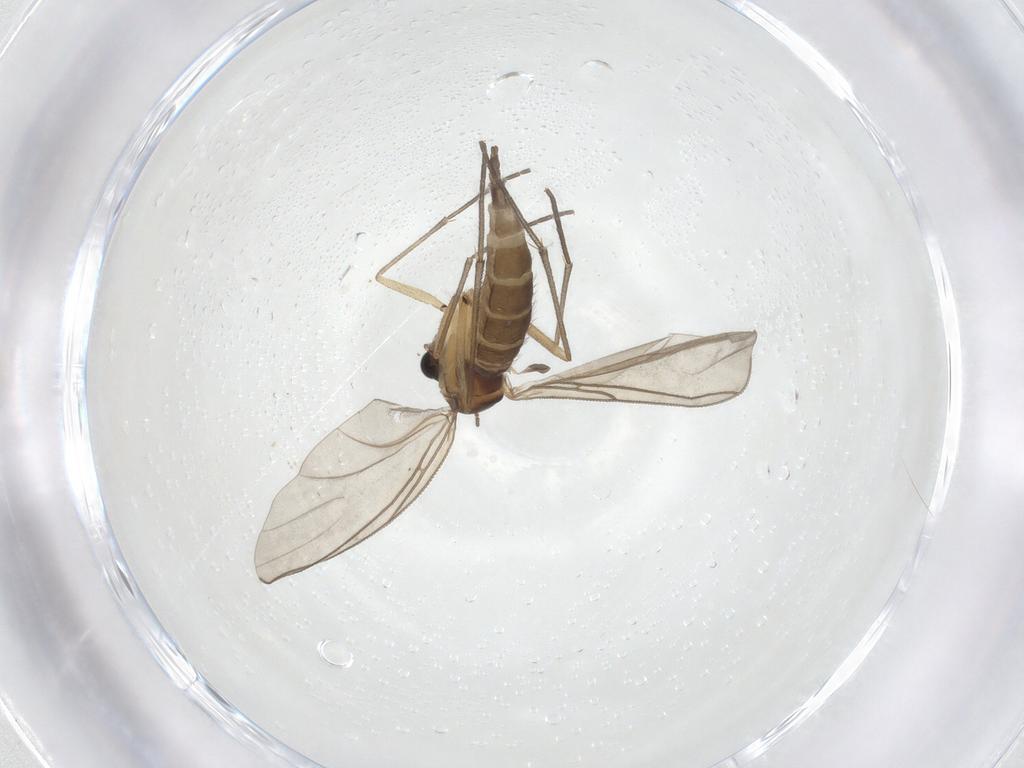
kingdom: Animalia
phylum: Arthropoda
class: Insecta
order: Diptera
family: Sciaridae
